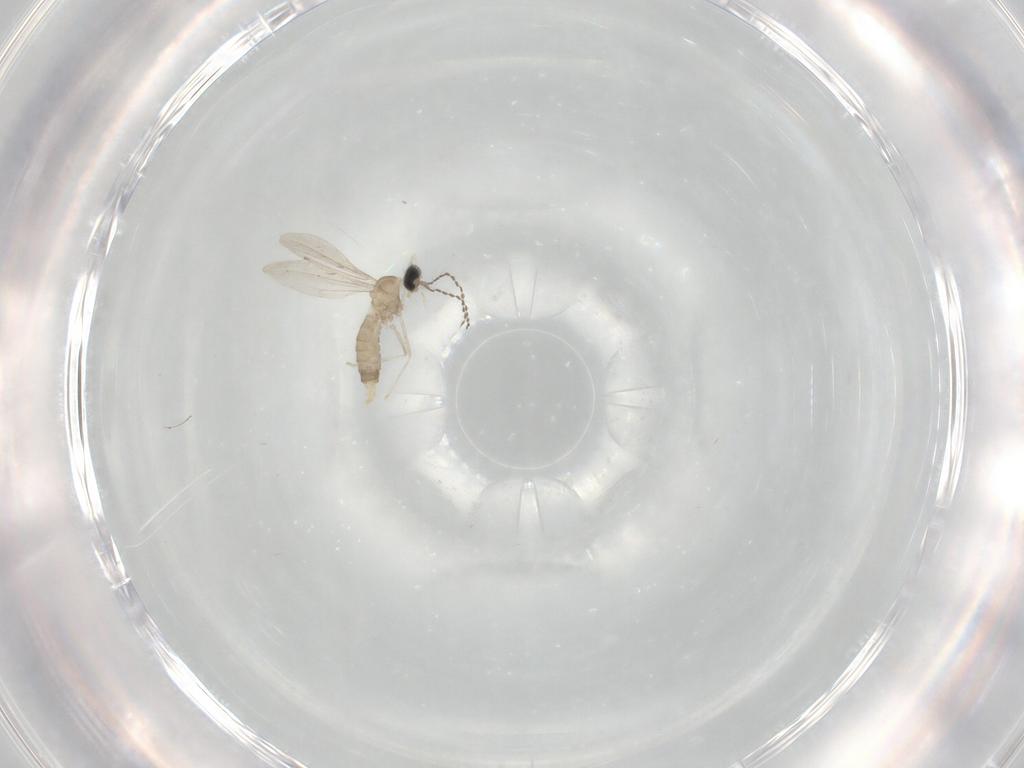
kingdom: Animalia
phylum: Arthropoda
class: Insecta
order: Diptera
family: Cecidomyiidae
